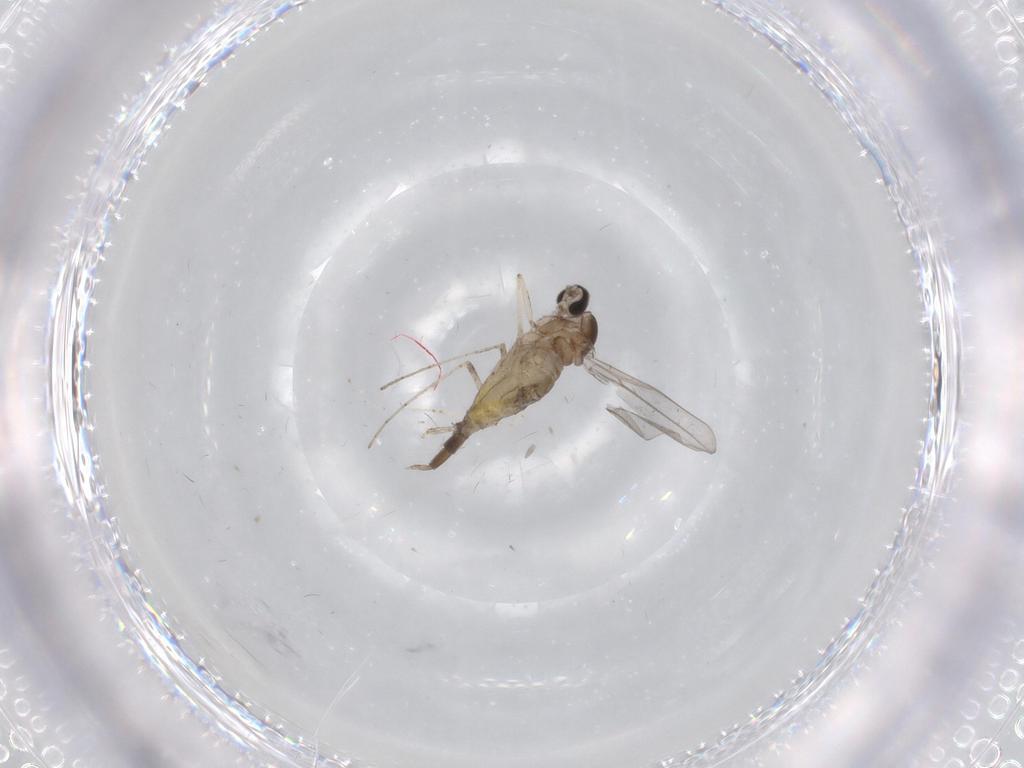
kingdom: Animalia
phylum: Arthropoda
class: Insecta
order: Diptera
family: Cecidomyiidae
